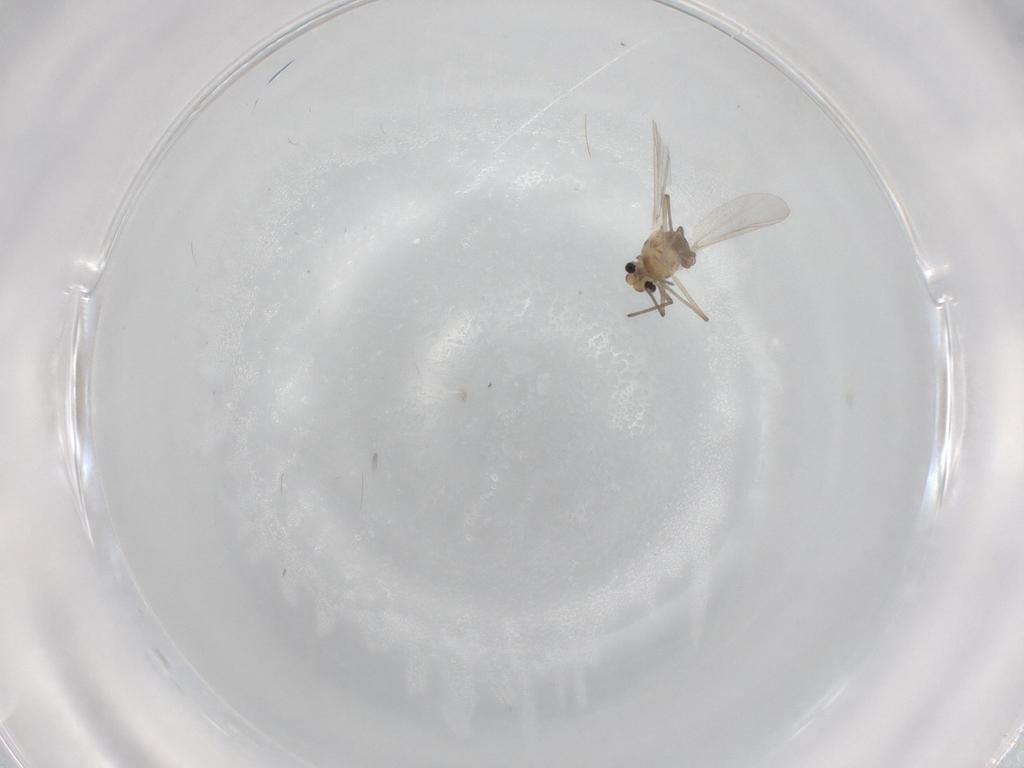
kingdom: Animalia
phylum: Arthropoda
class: Insecta
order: Diptera
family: Chironomidae
